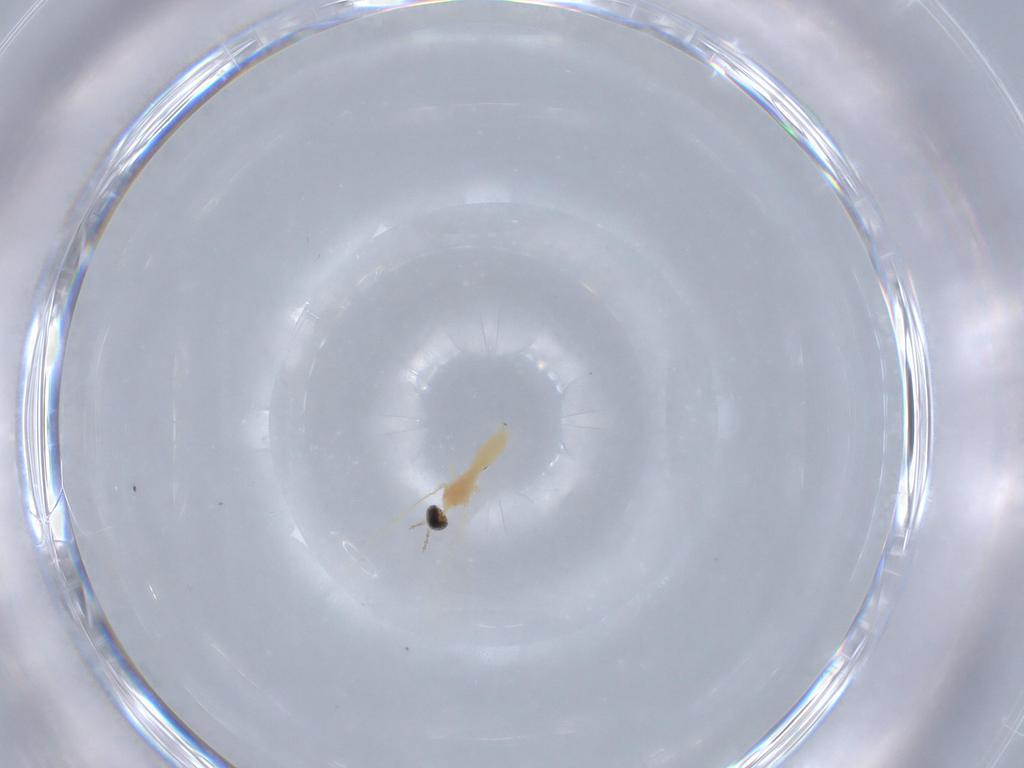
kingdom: Animalia
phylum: Arthropoda
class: Insecta
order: Diptera
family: Cecidomyiidae
